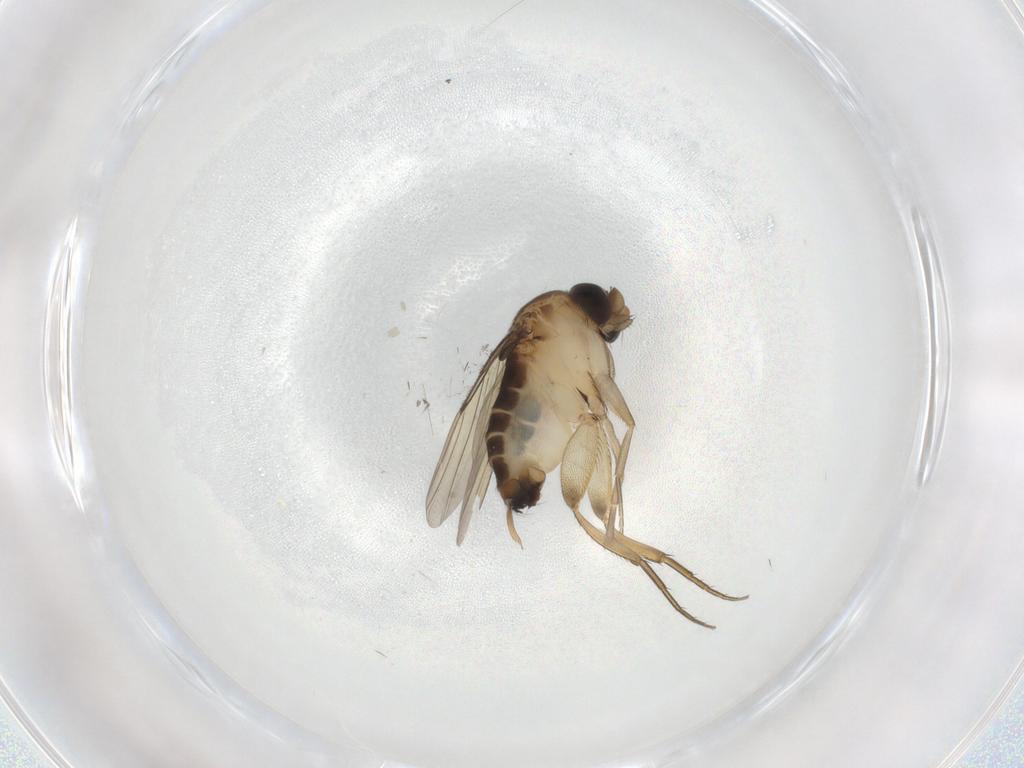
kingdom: Animalia
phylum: Arthropoda
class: Insecta
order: Diptera
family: Phoridae
